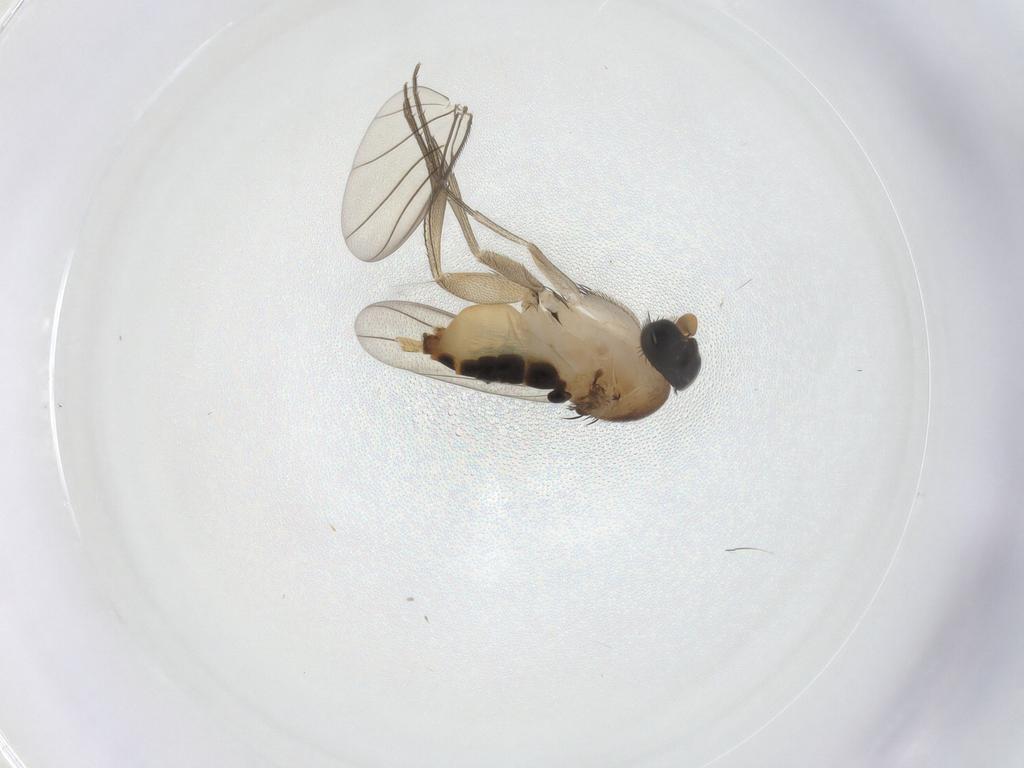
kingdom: Animalia
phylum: Arthropoda
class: Insecta
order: Diptera
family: Phoridae
